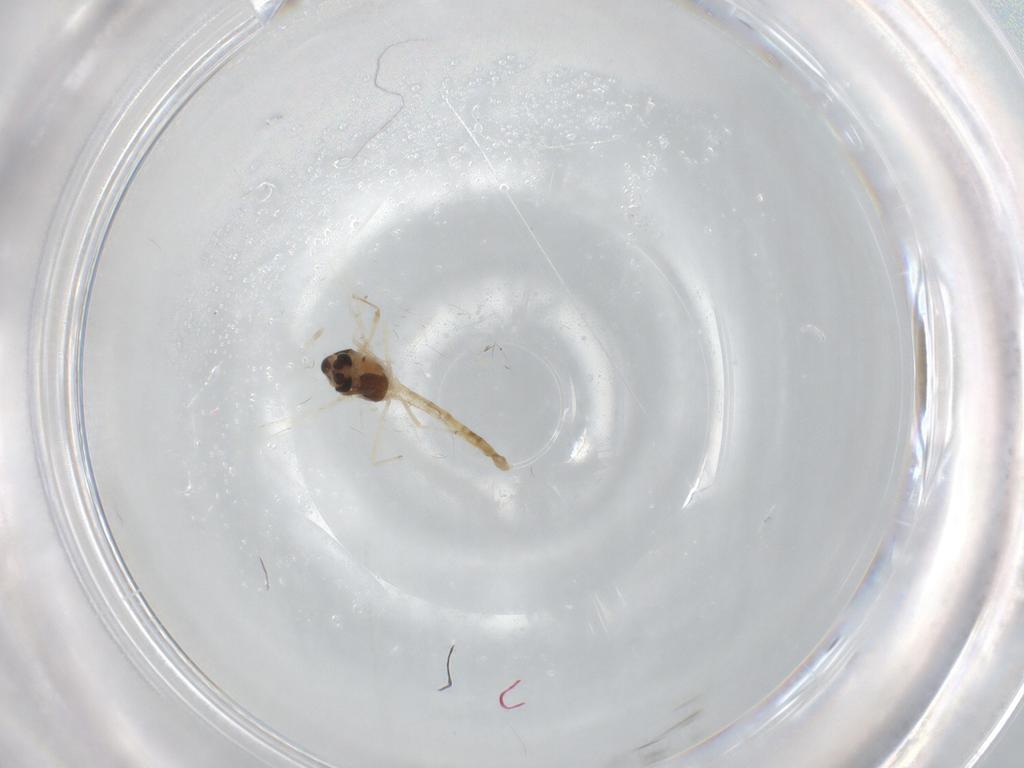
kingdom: Animalia
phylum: Arthropoda
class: Insecta
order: Diptera
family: Chironomidae
